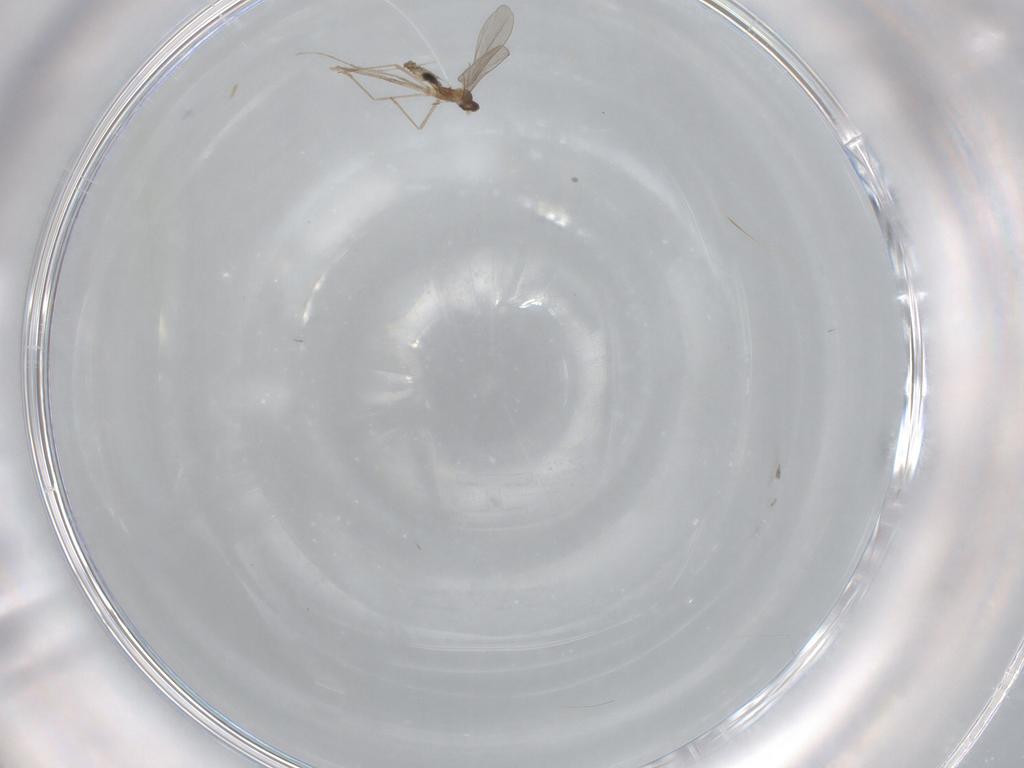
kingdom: Animalia
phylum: Arthropoda
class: Insecta
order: Diptera
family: Cecidomyiidae
